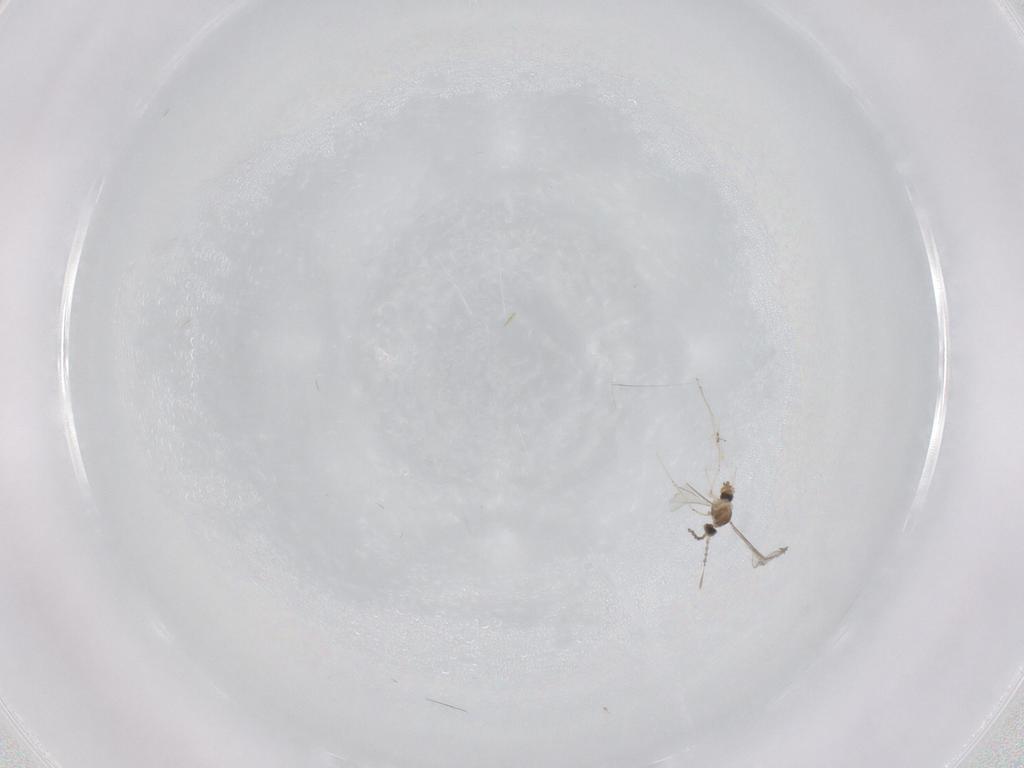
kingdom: Animalia
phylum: Arthropoda
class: Insecta
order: Diptera
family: Cecidomyiidae
